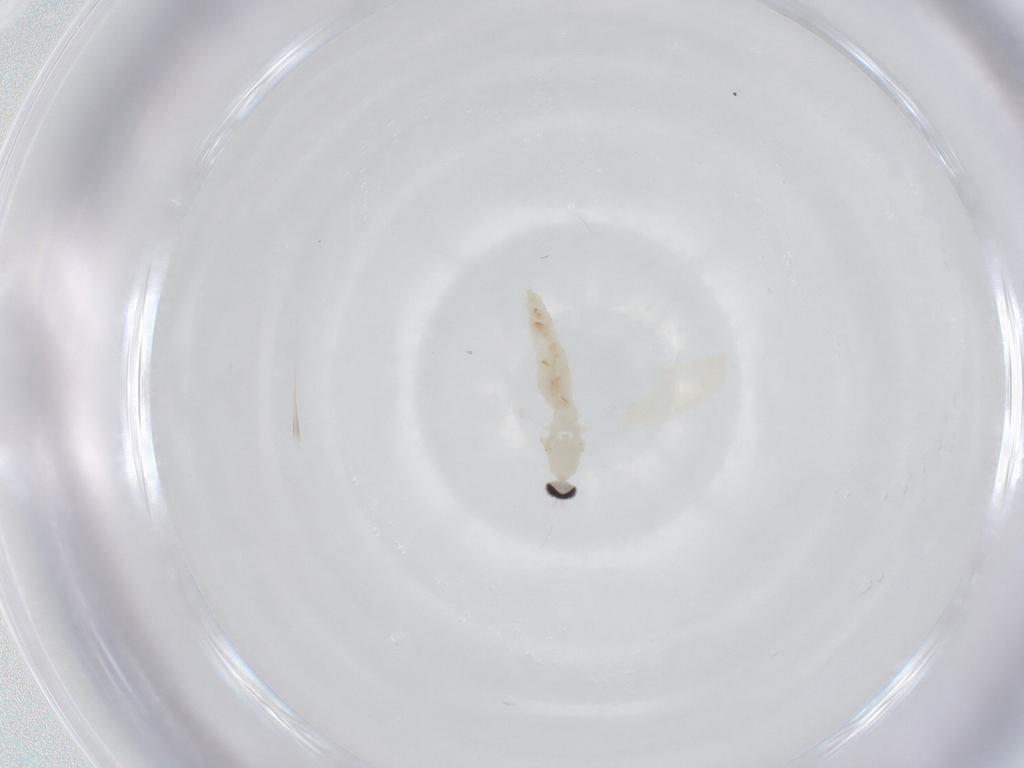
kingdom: Animalia
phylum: Arthropoda
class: Insecta
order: Diptera
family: Cecidomyiidae
